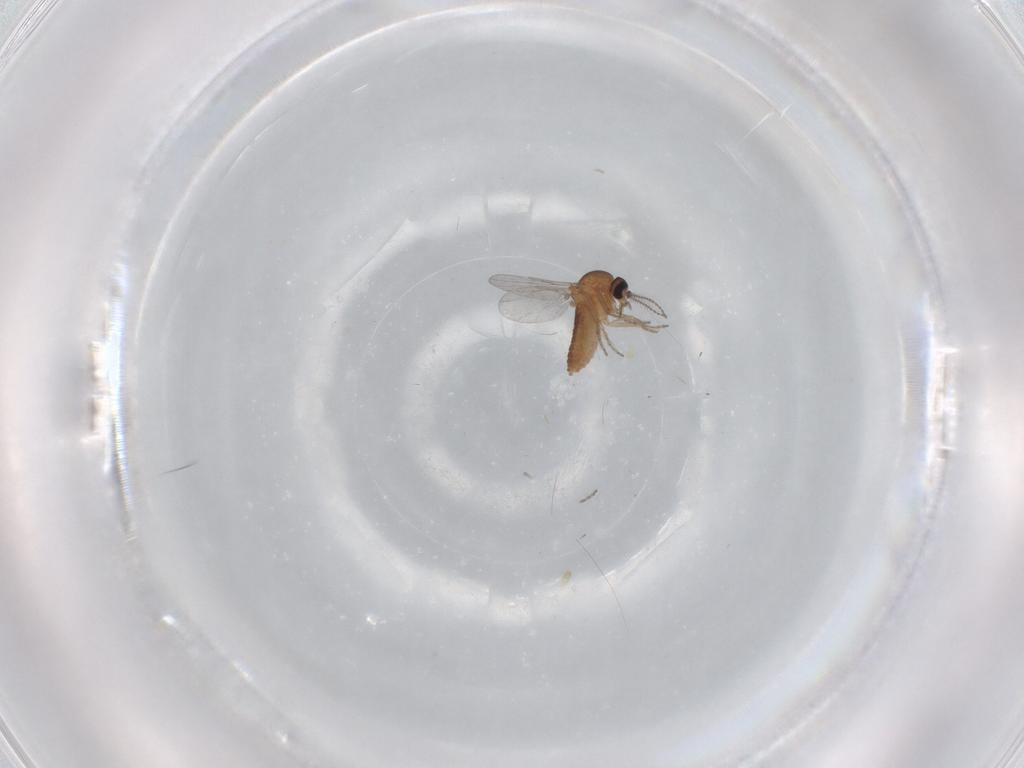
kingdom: Animalia
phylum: Arthropoda
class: Insecta
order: Diptera
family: Ceratopogonidae
